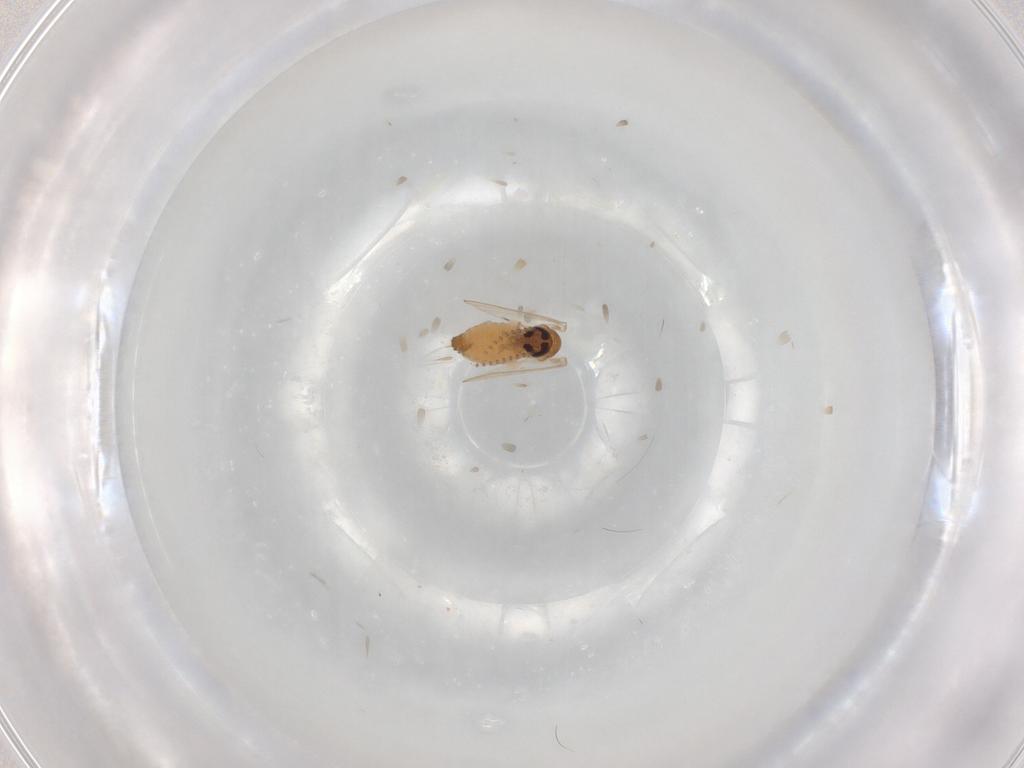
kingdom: Animalia
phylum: Arthropoda
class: Insecta
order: Diptera
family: Psychodidae
